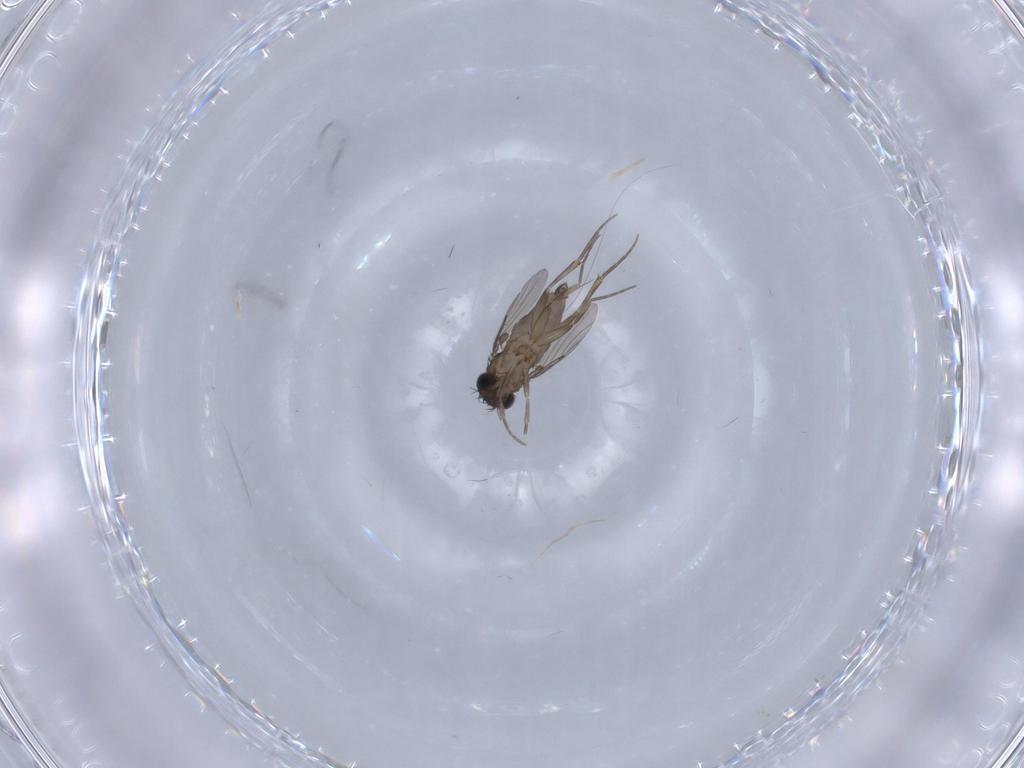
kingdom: Animalia
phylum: Arthropoda
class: Insecta
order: Diptera
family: Phoridae
